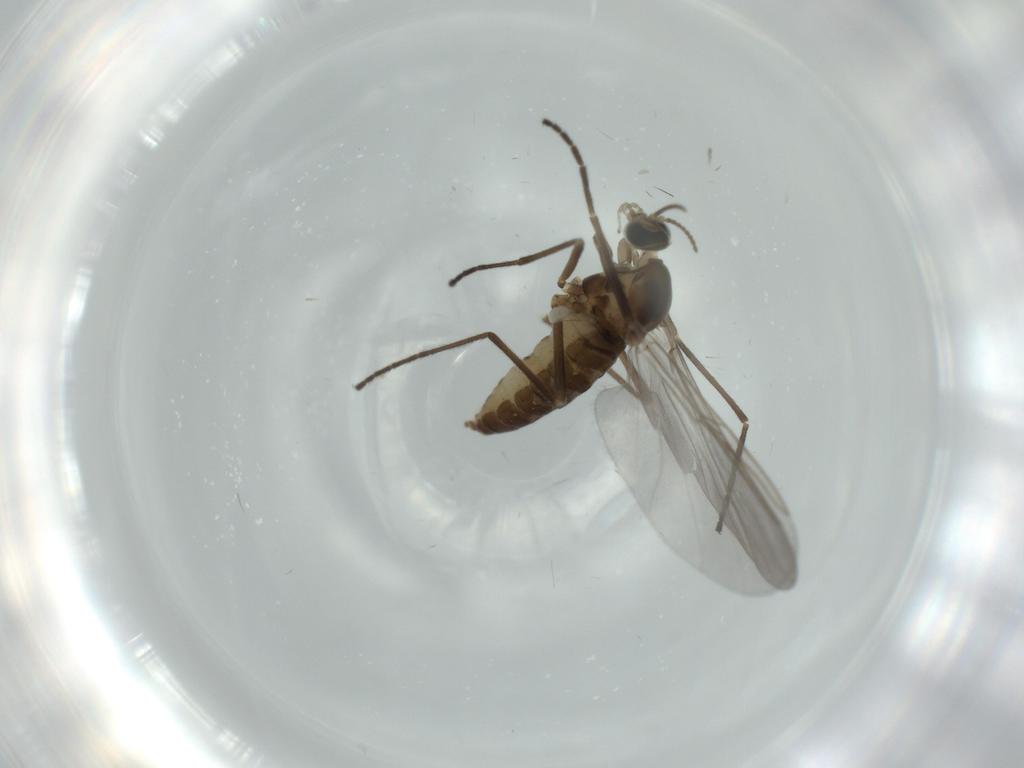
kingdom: Animalia
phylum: Arthropoda
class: Insecta
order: Diptera
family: Cecidomyiidae
